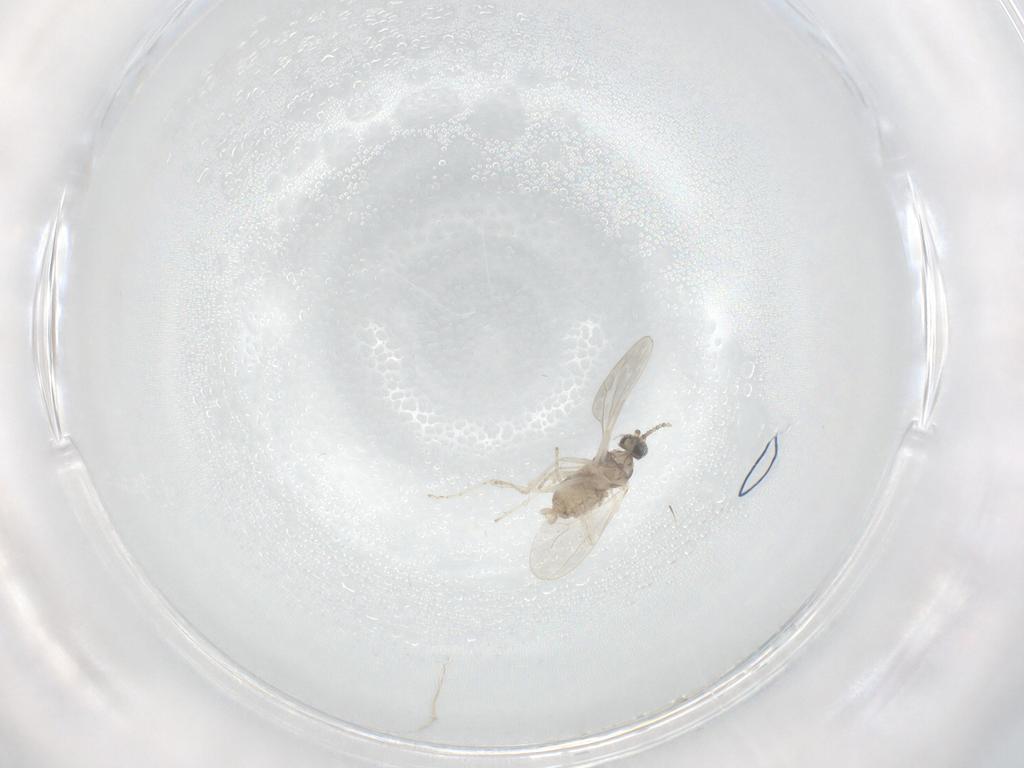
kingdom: Animalia
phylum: Arthropoda
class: Insecta
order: Diptera
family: Cecidomyiidae
